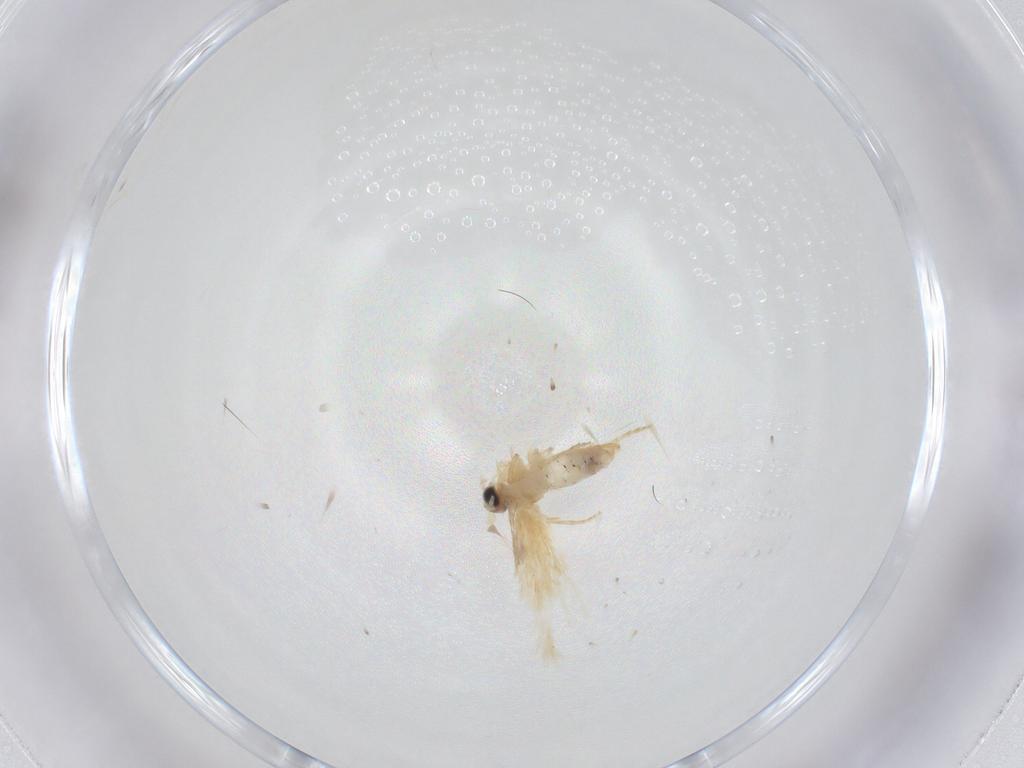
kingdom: Animalia
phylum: Arthropoda
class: Insecta
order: Lepidoptera
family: Nepticulidae
